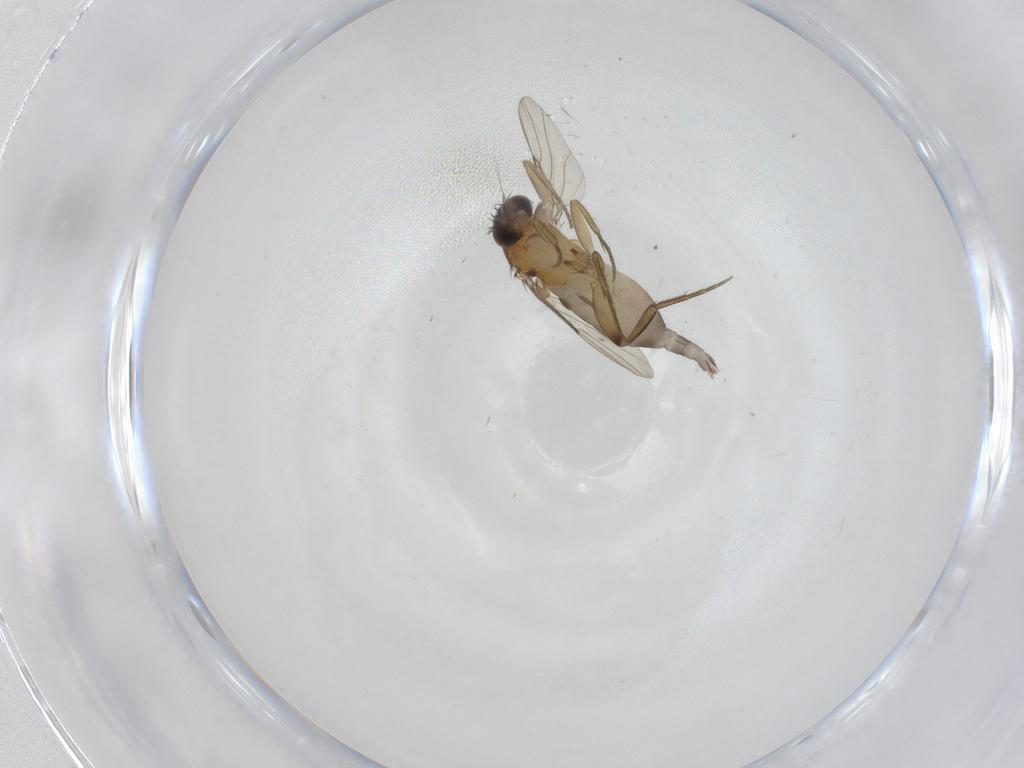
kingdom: Animalia
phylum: Arthropoda
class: Insecta
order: Diptera
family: Phoridae
